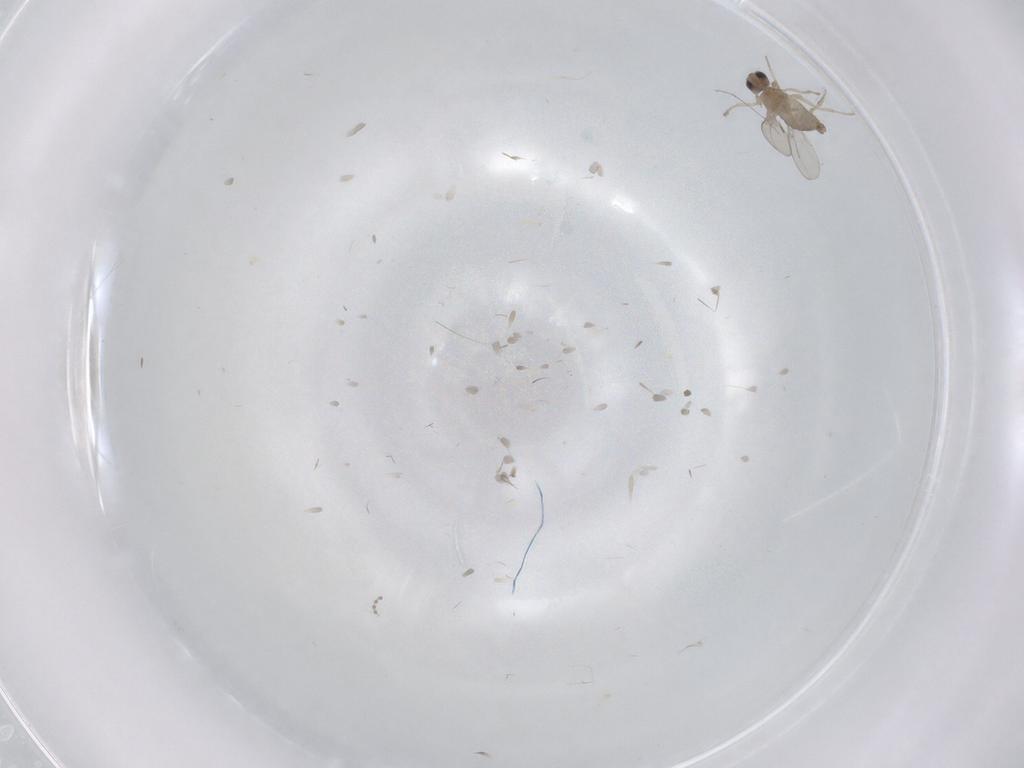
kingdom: Animalia
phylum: Arthropoda
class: Insecta
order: Diptera
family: Cecidomyiidae
